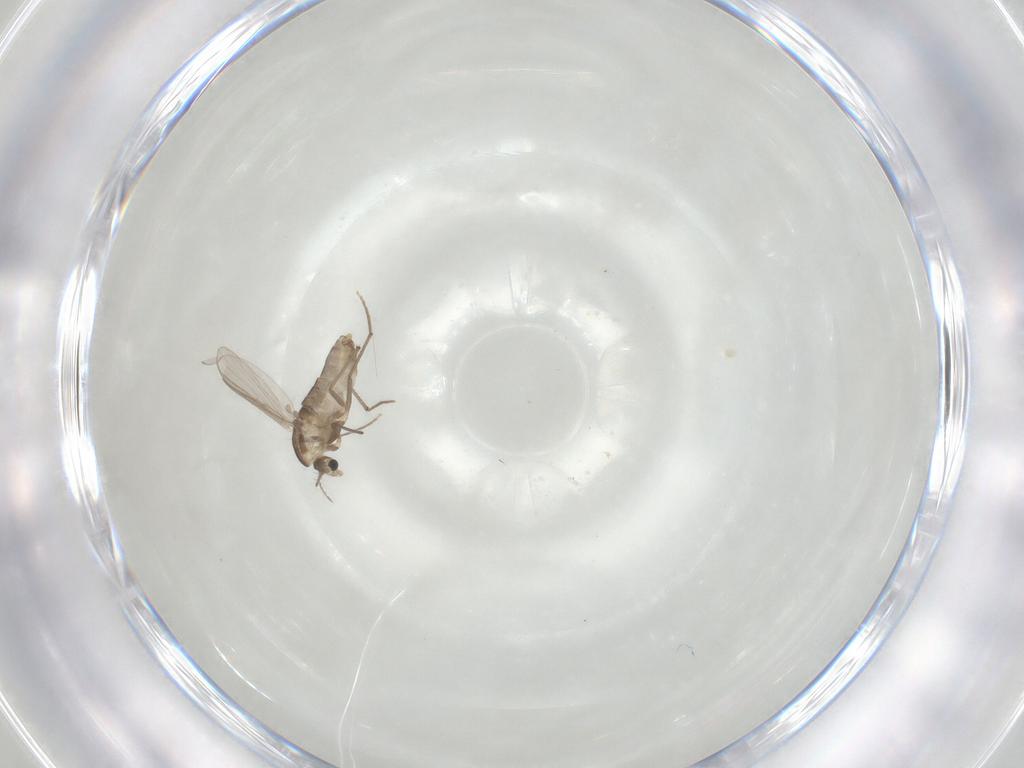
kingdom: Animalia
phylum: Arthropoda
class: Insecta
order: Diptera
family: Chironomidae
